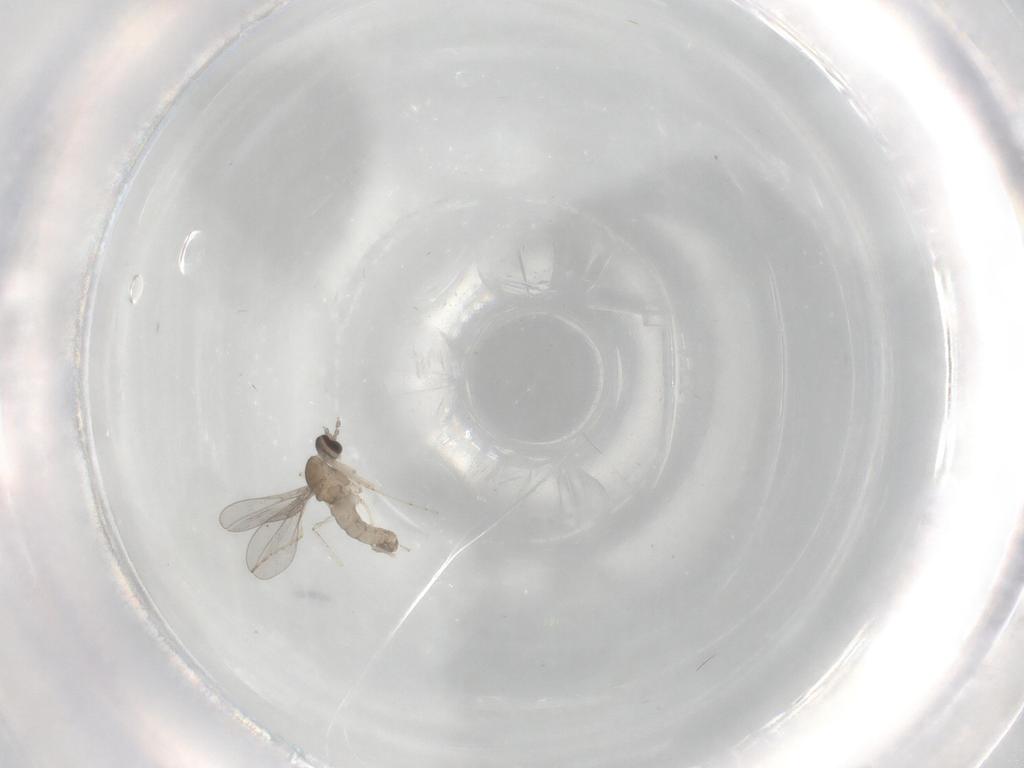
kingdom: Animalia
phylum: Arthropoda
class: Insecta
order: Diptera
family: Cecidomyiidae
